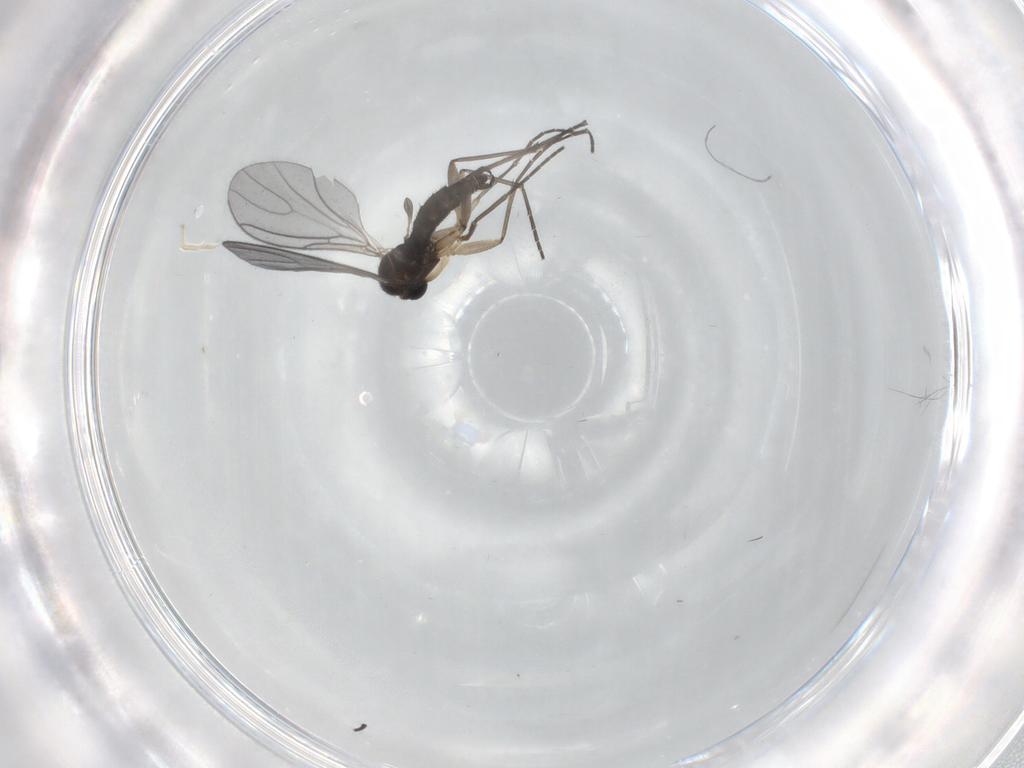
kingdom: Animalia
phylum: Arthropoda
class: Insecta
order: Diptera
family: Sciaridae
